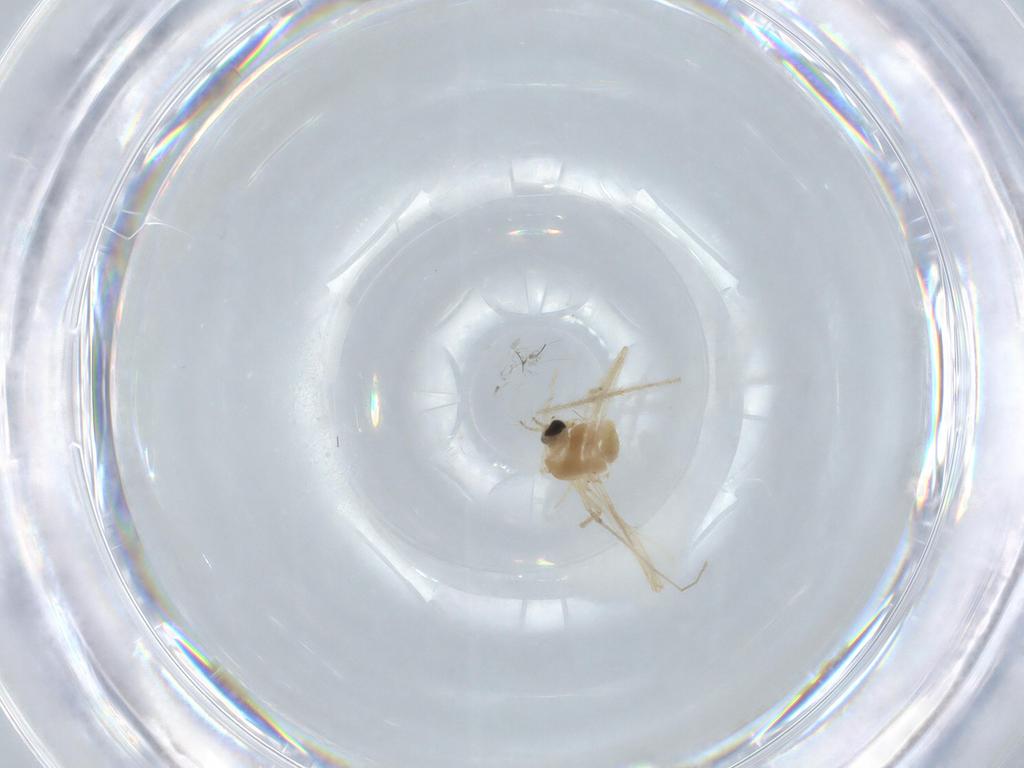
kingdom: Animalia
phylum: Arthropoda
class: Insecta
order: Diptera
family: Chironomidae
